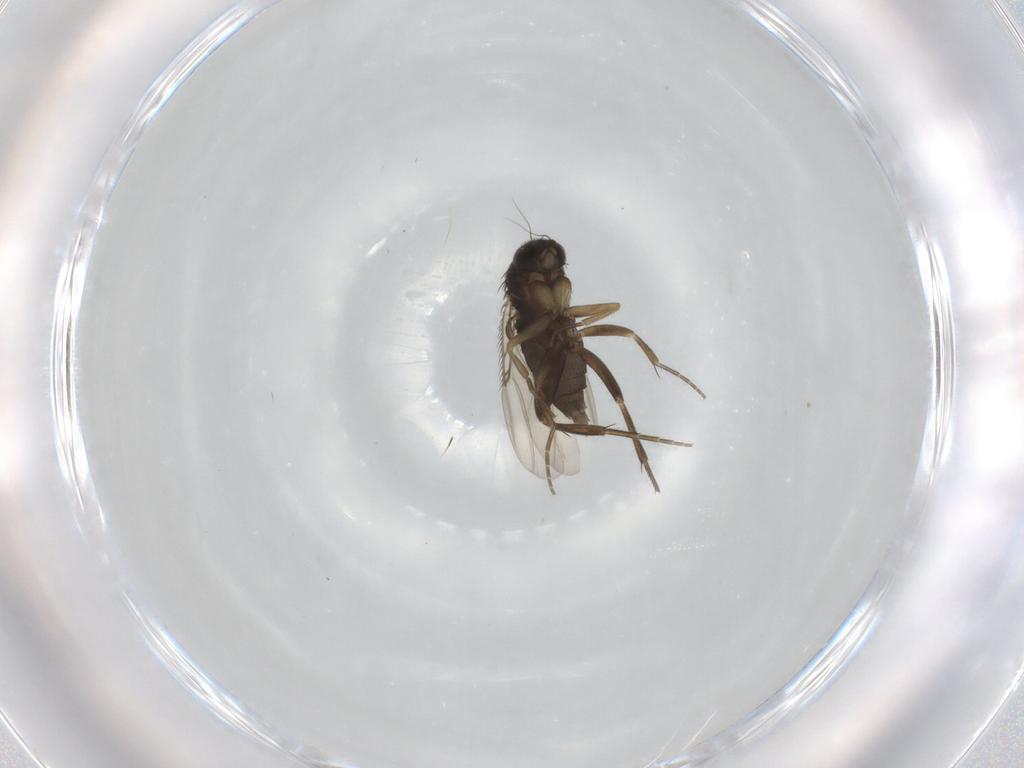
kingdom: Animalia
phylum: Arthropoda
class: Insecta
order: Diptera
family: Phoridae
